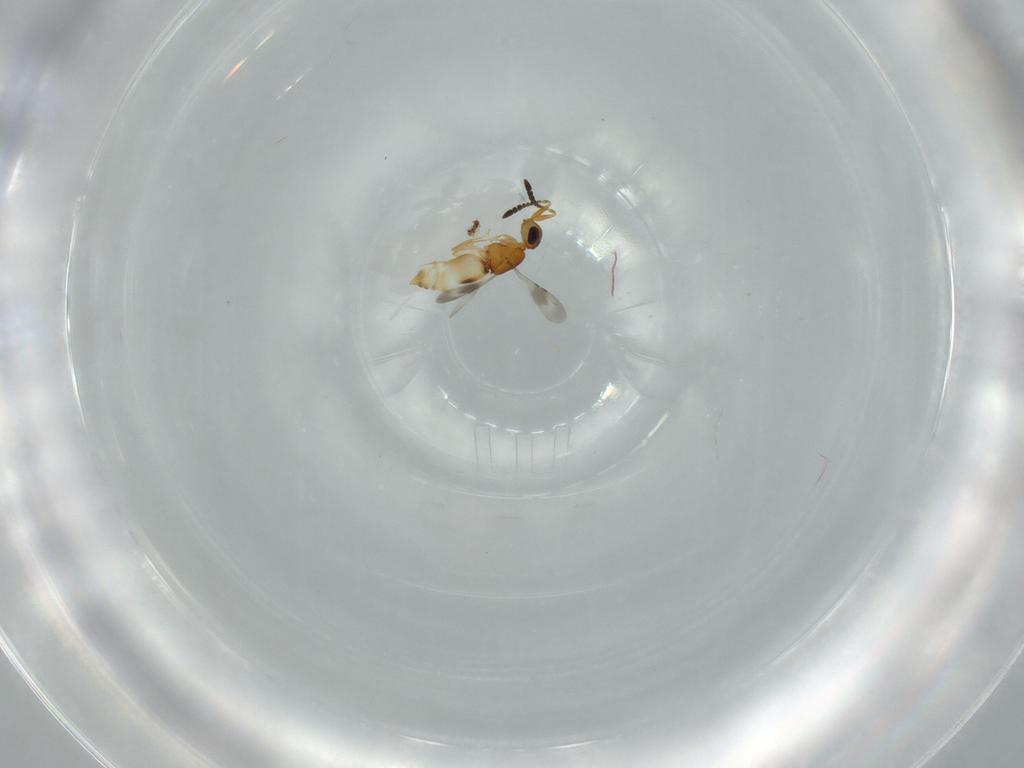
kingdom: Animalia
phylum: Arthropoda
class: Insecta
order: Hymenoptera
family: Ceraphronidae
